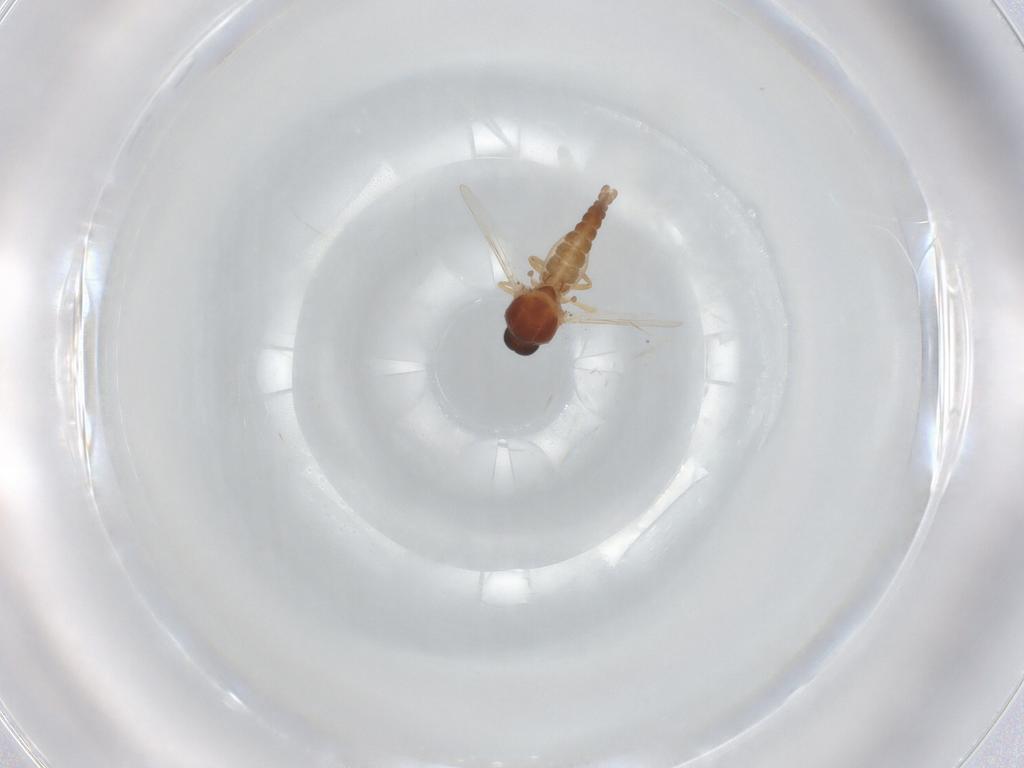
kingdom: Animalia
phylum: Arthropoda
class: Insecta
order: Diptera
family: Ceratopogonidae
